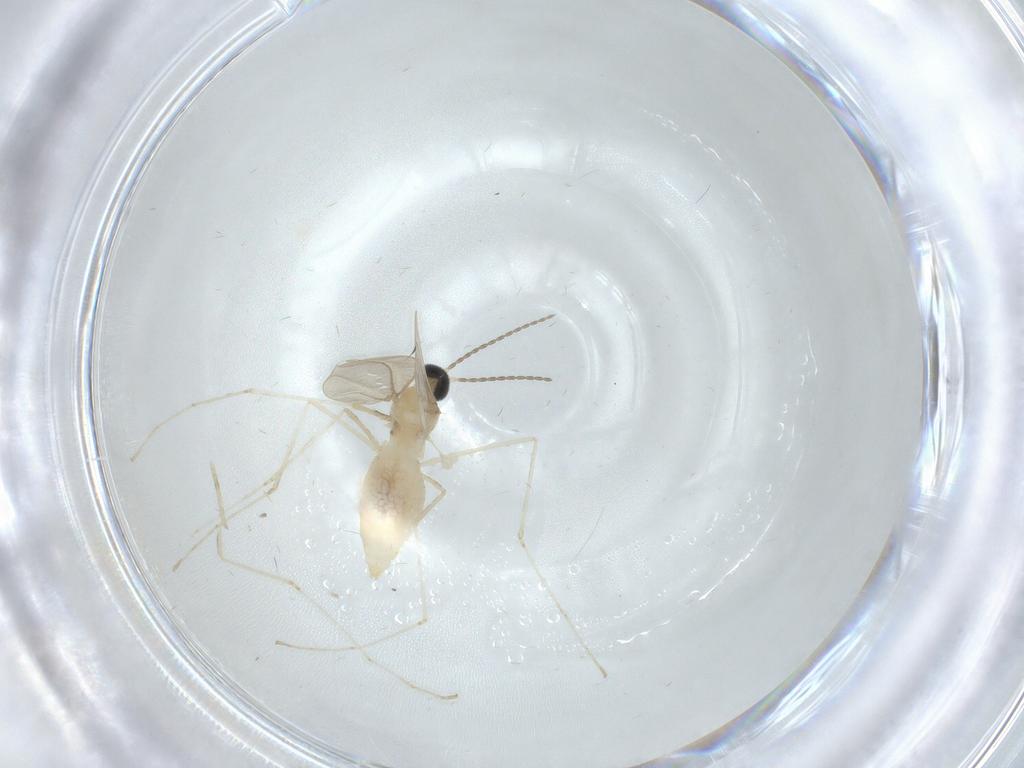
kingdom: Animalia
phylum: Arthropoda
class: Insecta
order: Diptera
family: Cecidomyiidae
